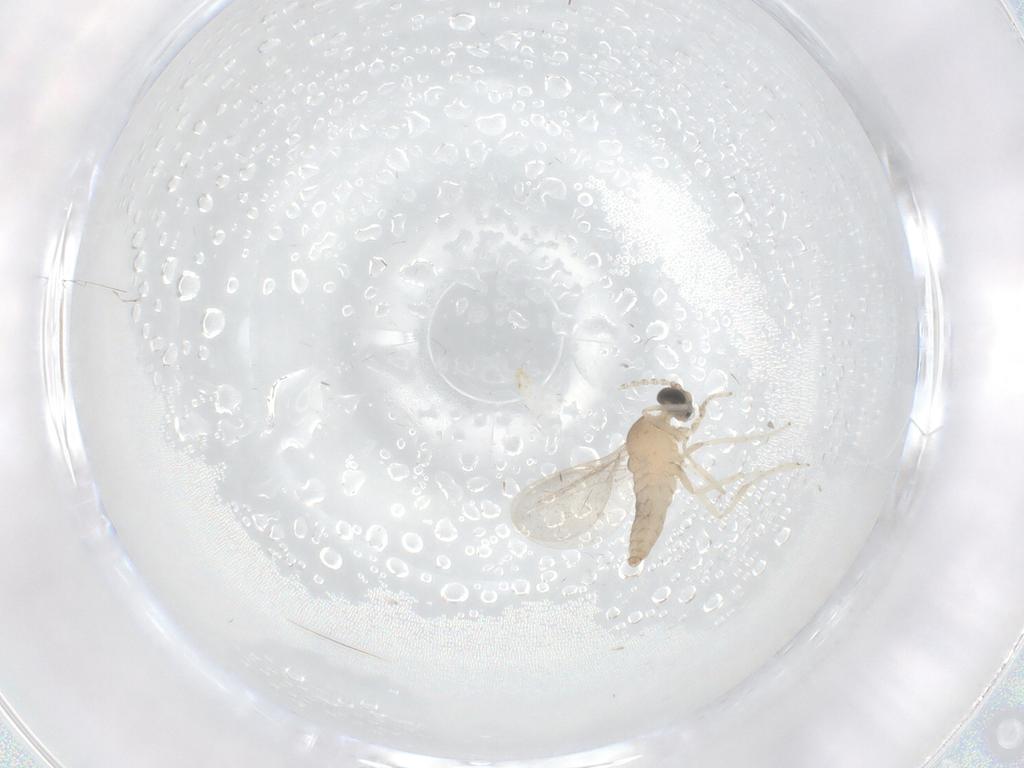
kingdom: Animalia
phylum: Arthropoda
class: Insecta
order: Diptera
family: Cecidomyiidae
